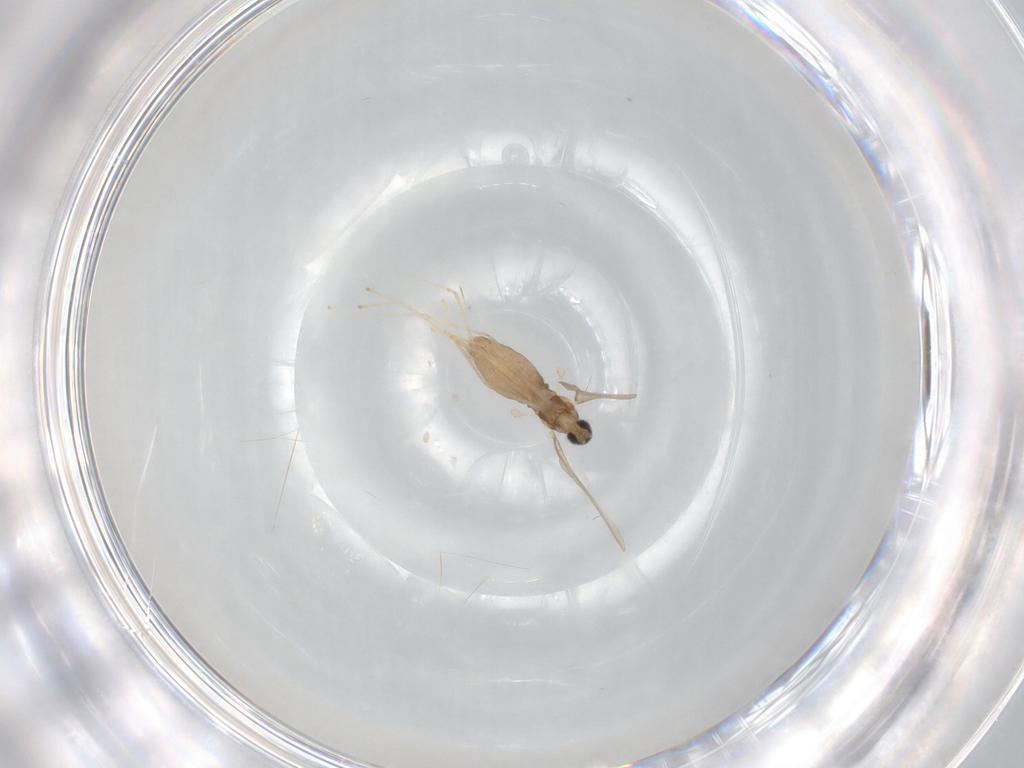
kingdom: Animalia
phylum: Arthropoda
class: Insecta
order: Diptera
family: Cecidomyiidae
